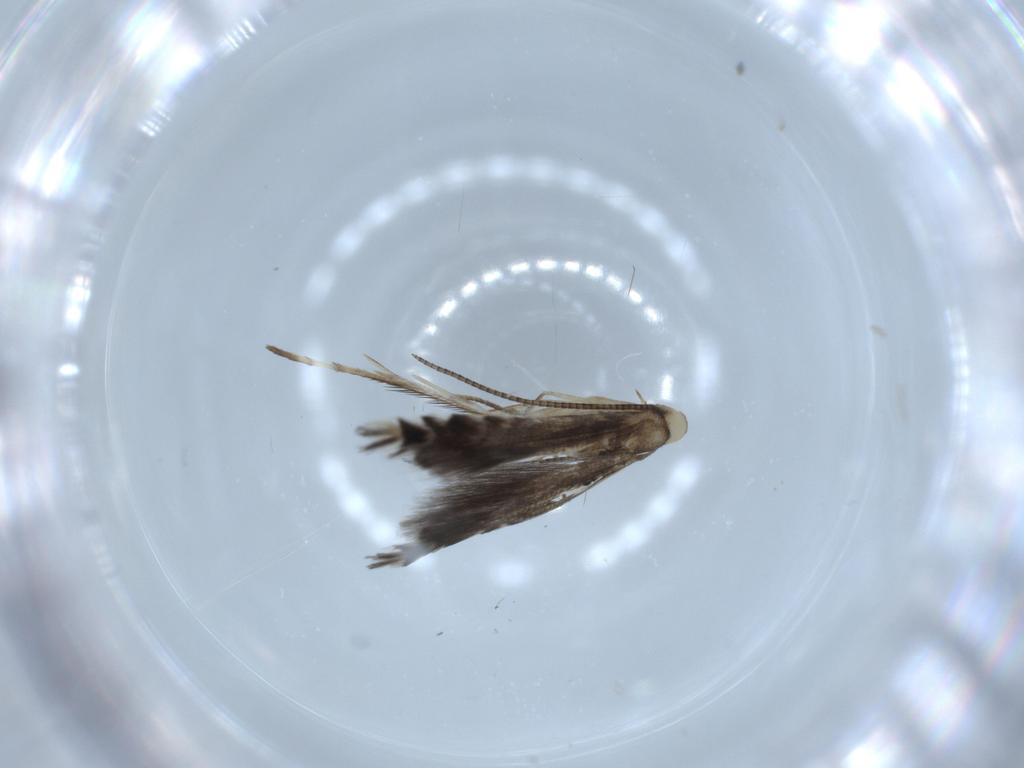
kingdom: Animalia
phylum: Arthropoda
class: Insecta
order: Lepidoptera
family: Gracillariidae
